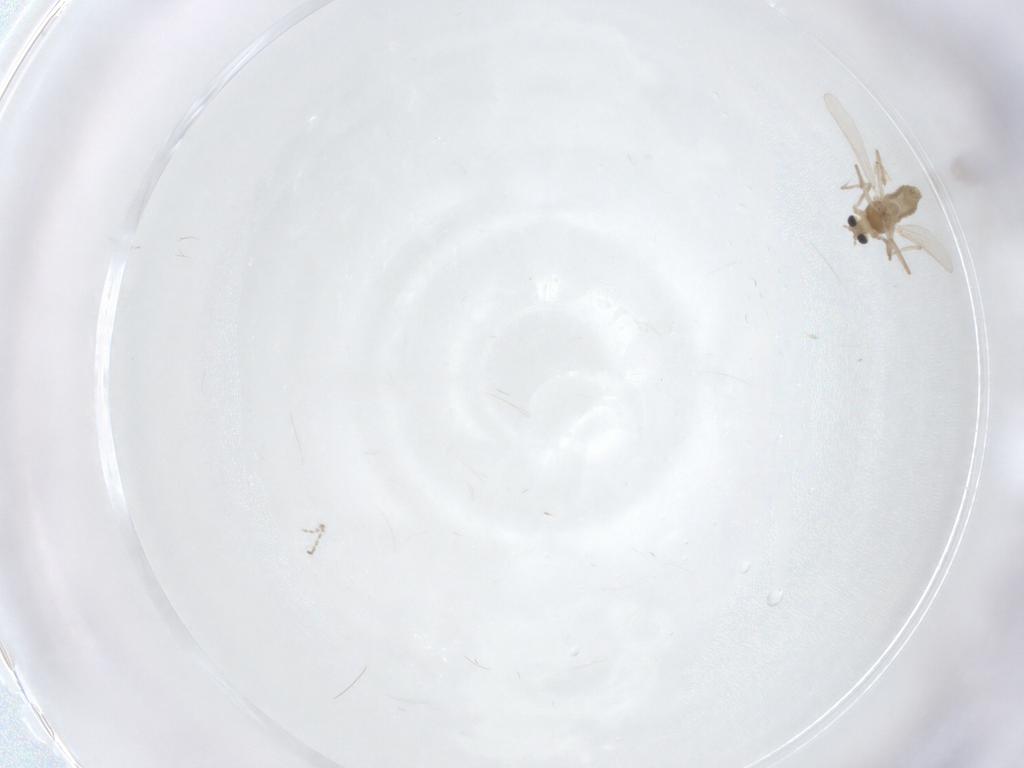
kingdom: Animalia
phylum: Arthropoda
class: Insecta
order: Diptera
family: Chironomidae
